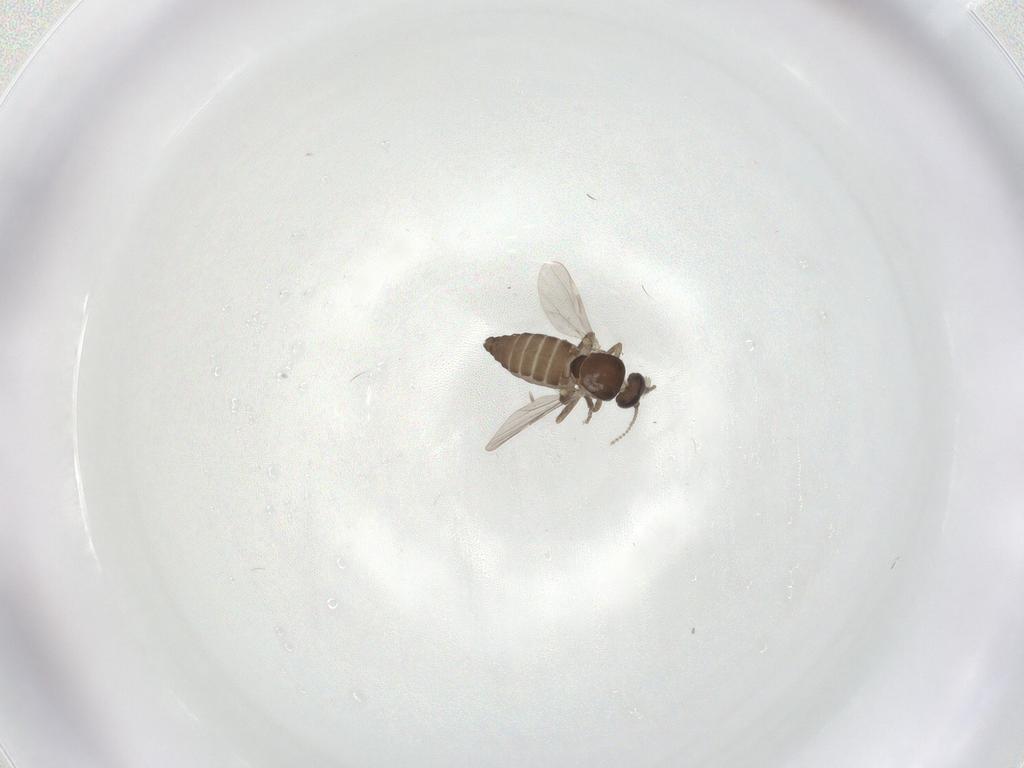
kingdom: Animalia
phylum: Arthropoda
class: Insecta
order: Diptera
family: Ceratopogonidae
